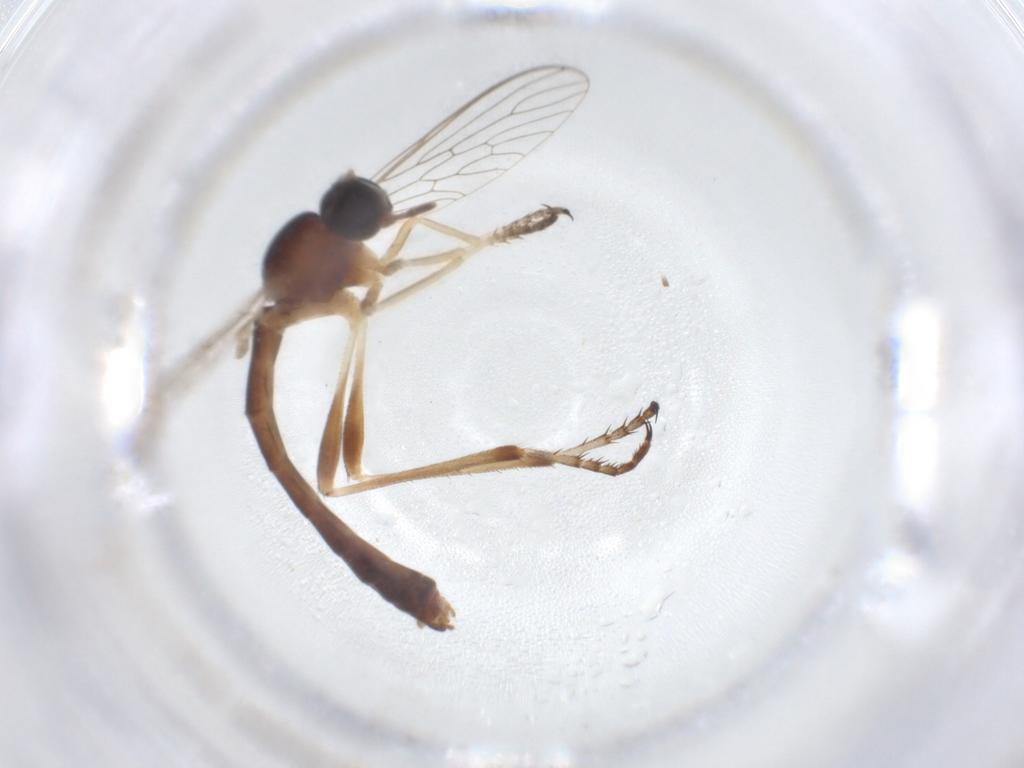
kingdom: Animalia
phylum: Arthropoda
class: Insecta
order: Diptera
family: Asilidae
